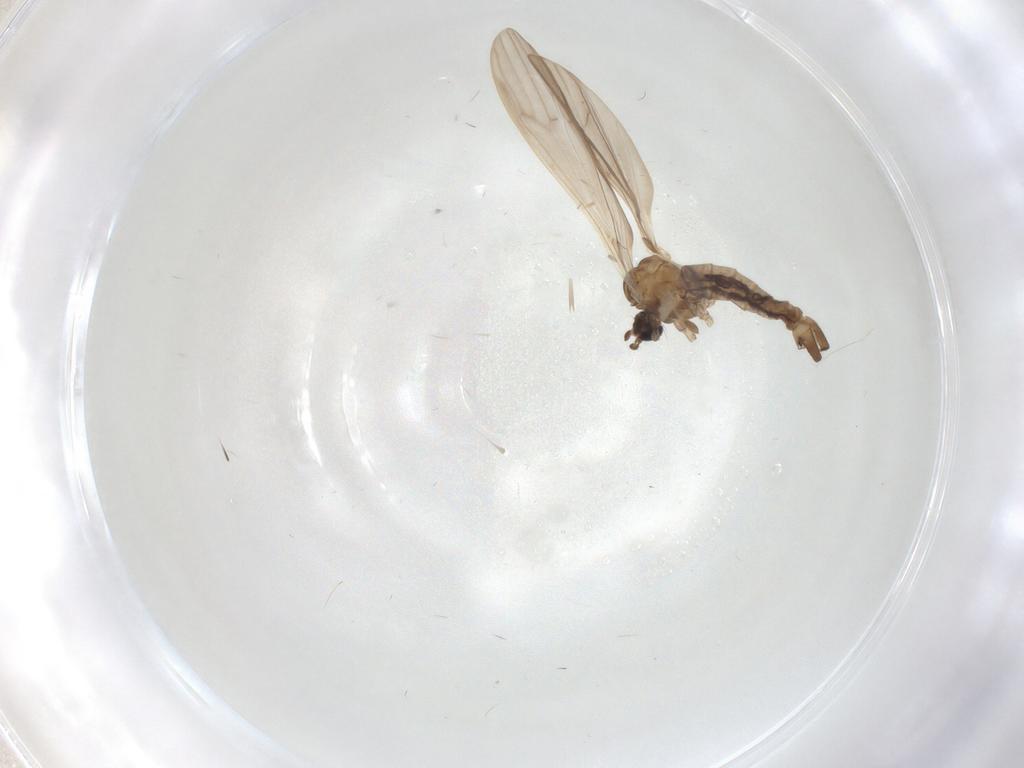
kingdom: Animalia
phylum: Arthropoda
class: Insecta
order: Diptera
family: Limoniidae
